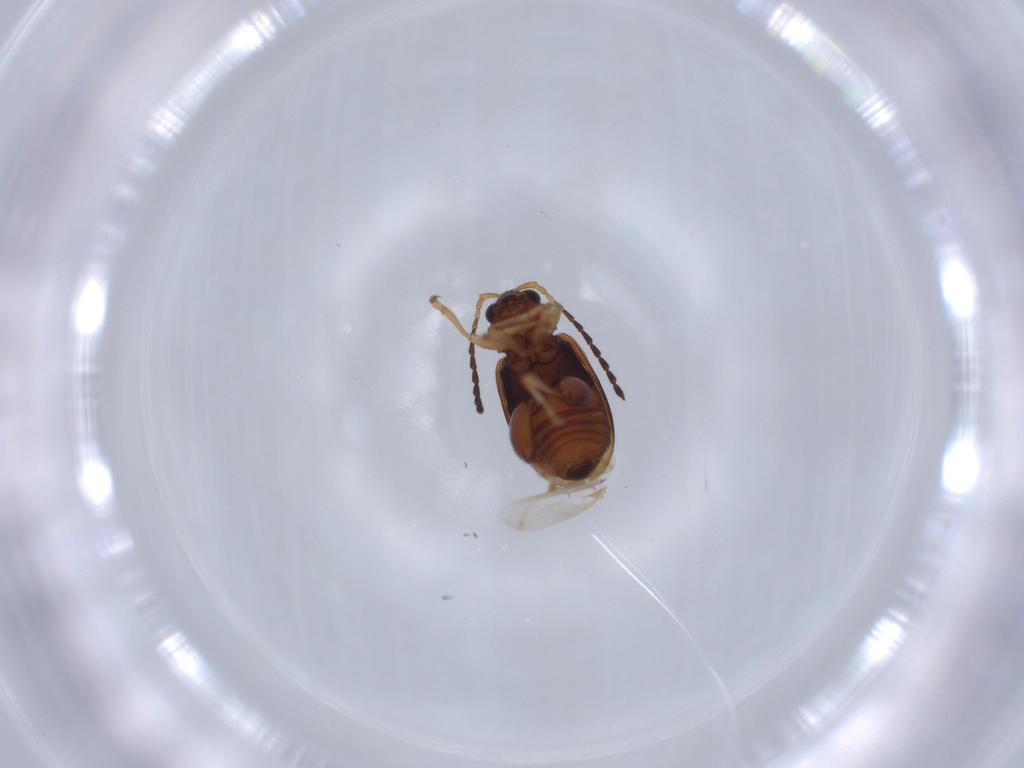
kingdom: Animalia
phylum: Arthropoda
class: Insecta
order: Coleoptera
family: Chrysomelidae
